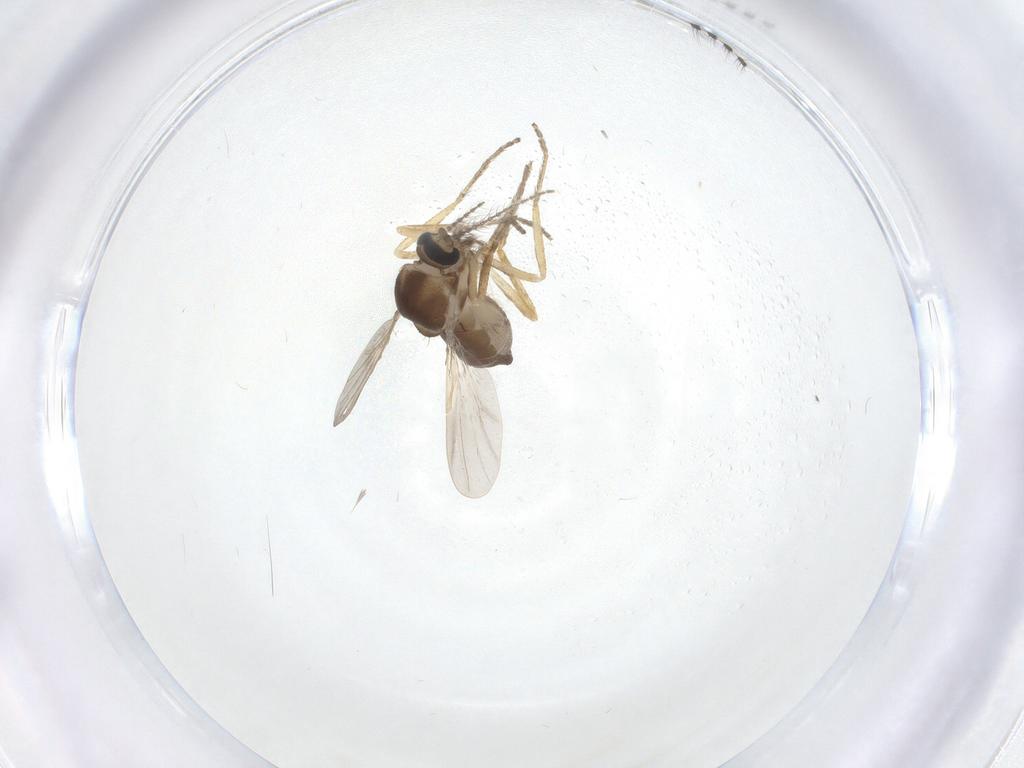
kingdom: Animalia
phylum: Arthropoda
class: Insecta
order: Diptera
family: Ceratopogonidae
